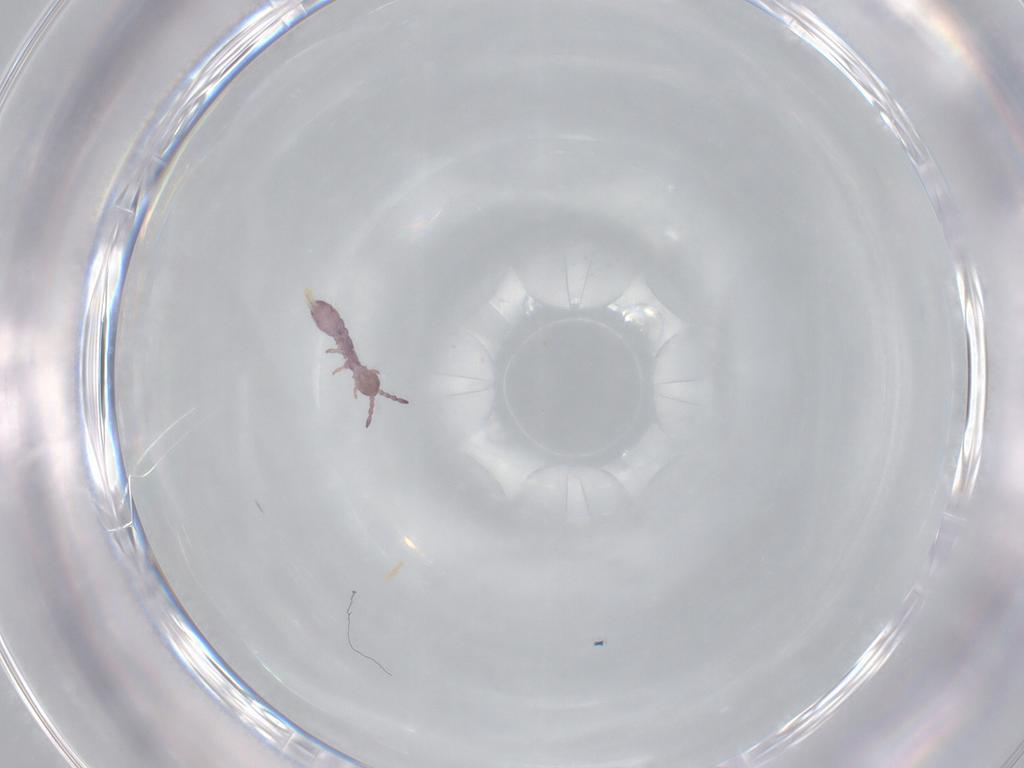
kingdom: Animalia
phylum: Arthropoda
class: Collembola
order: Entomobryomorpha
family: Isotomidae
